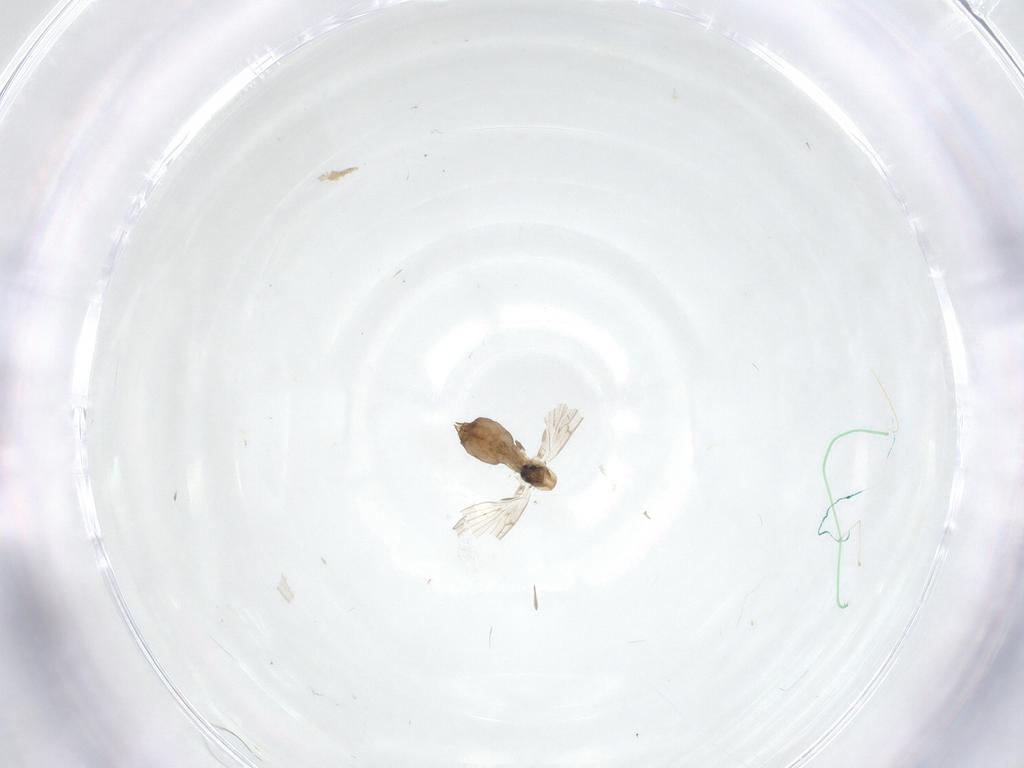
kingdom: Animalia
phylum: Arthropoda
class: Insecta
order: Diptera
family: Psychodidae
